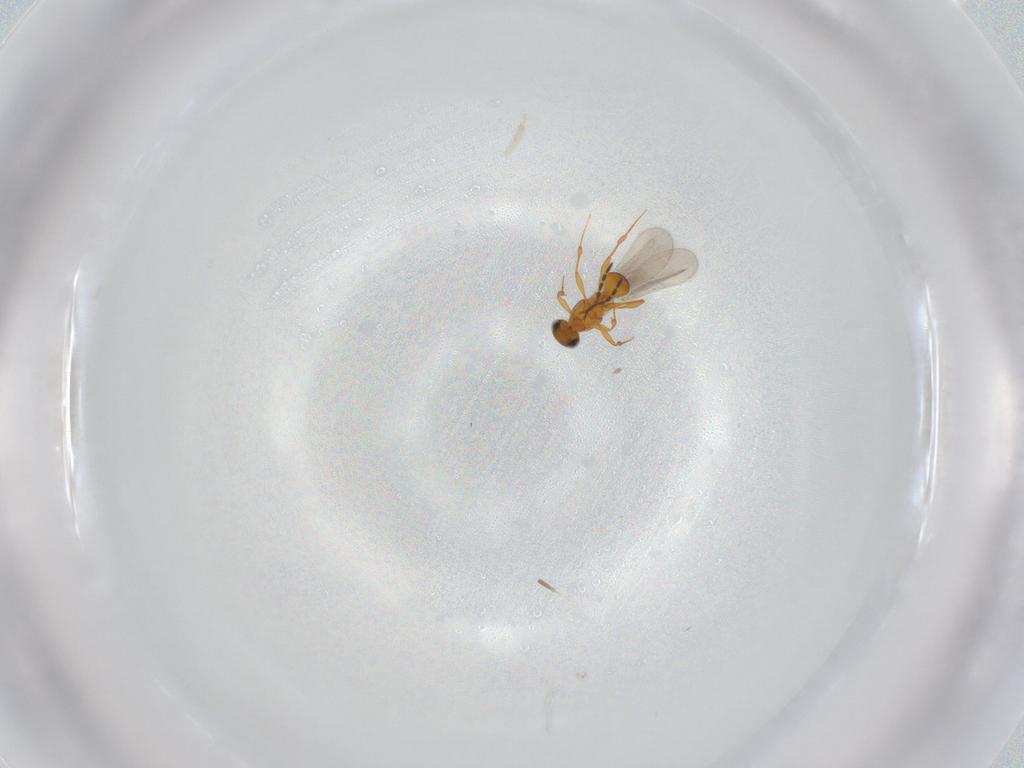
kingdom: Animalia
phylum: Arthropoda
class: Insecta
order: Hymenoptera
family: Platygastridae
